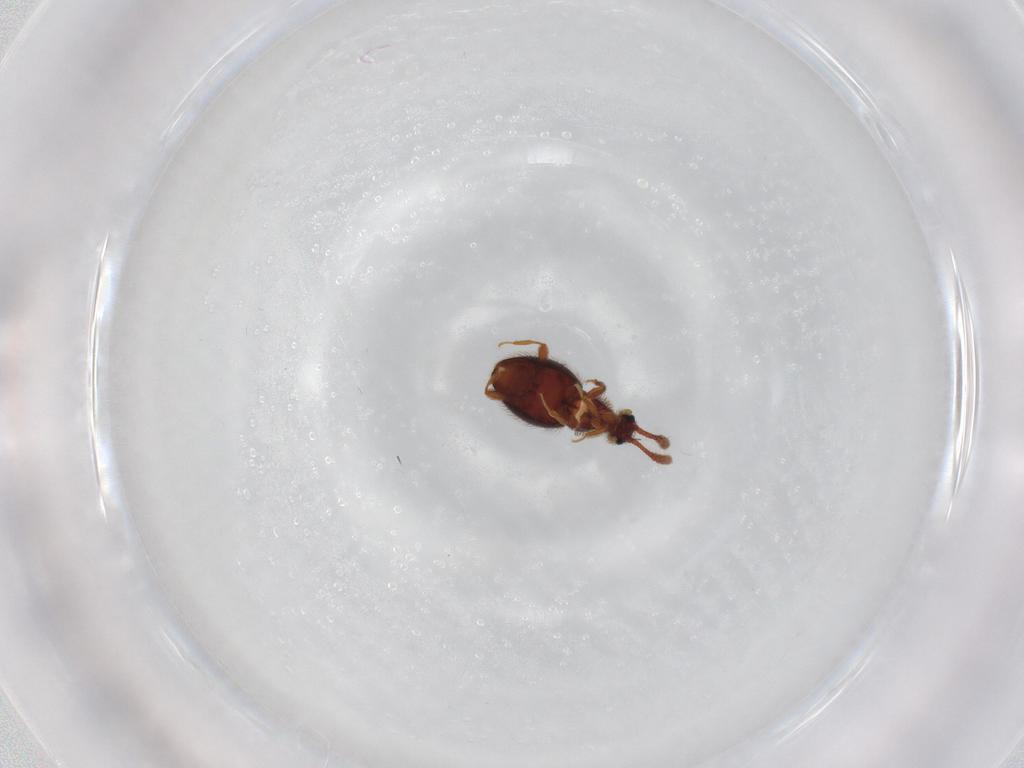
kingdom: Animalia
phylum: Arthropoda
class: Insecta
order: Coleoptera
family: Staphylinidae
